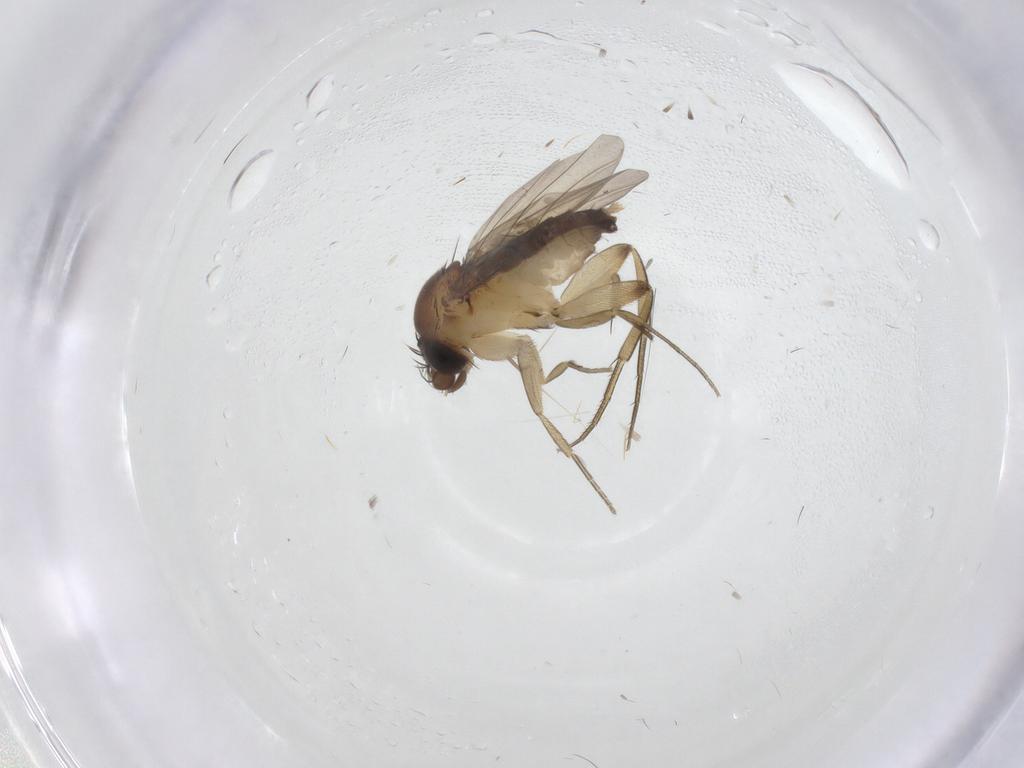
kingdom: Animalia
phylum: Arthropoda
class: Insecta
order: Diptera
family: Phoridae
